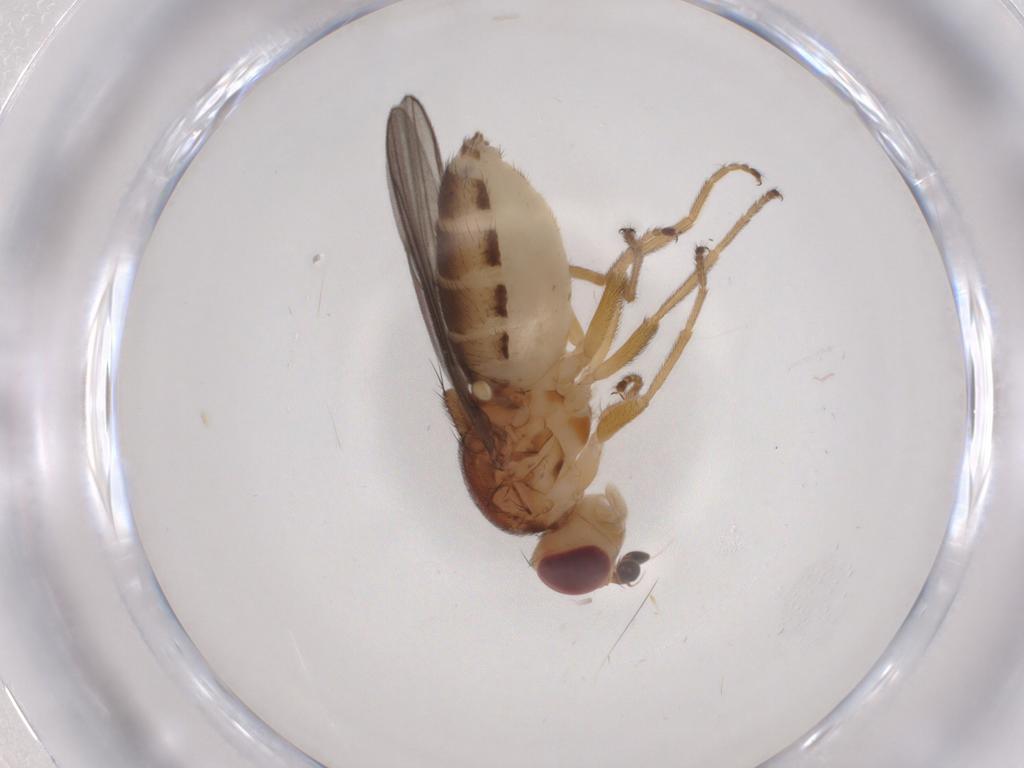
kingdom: Animalia
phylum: Arthropoda
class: Insecta
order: Diptera
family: Chloropidae
